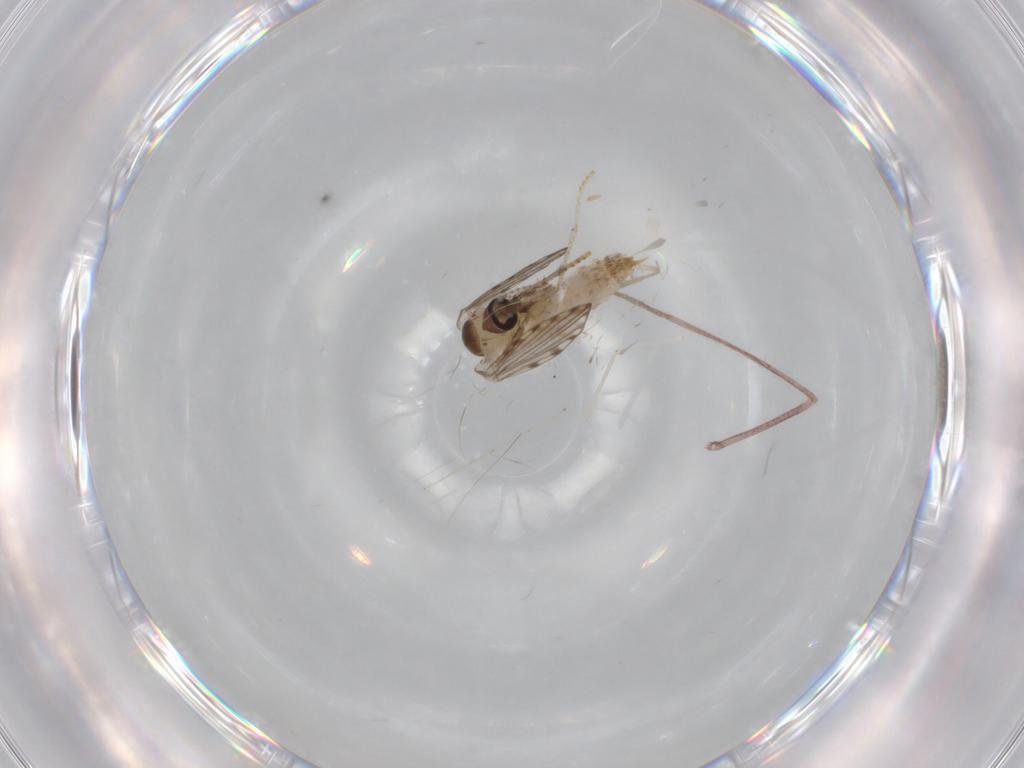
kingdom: Animalia
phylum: Arthropoda
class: Insecta
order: Diptera
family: Psychodidae
